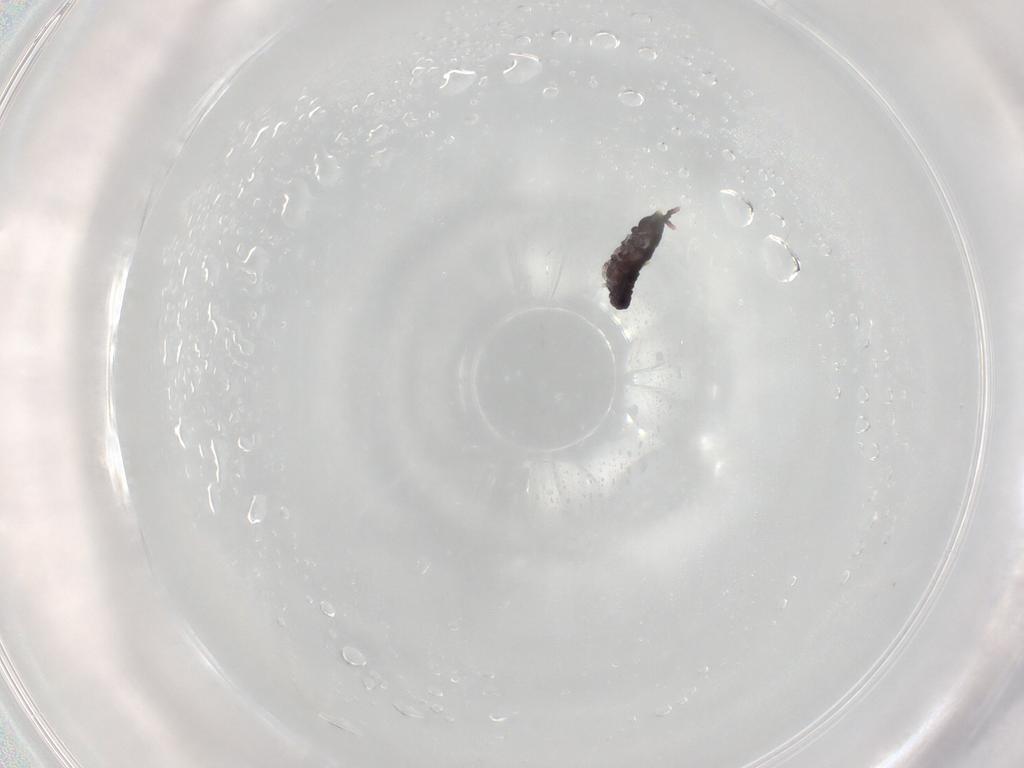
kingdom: Animalia
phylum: Arthropoda
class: Collembola
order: Poduromorpha
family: Neanuridae
